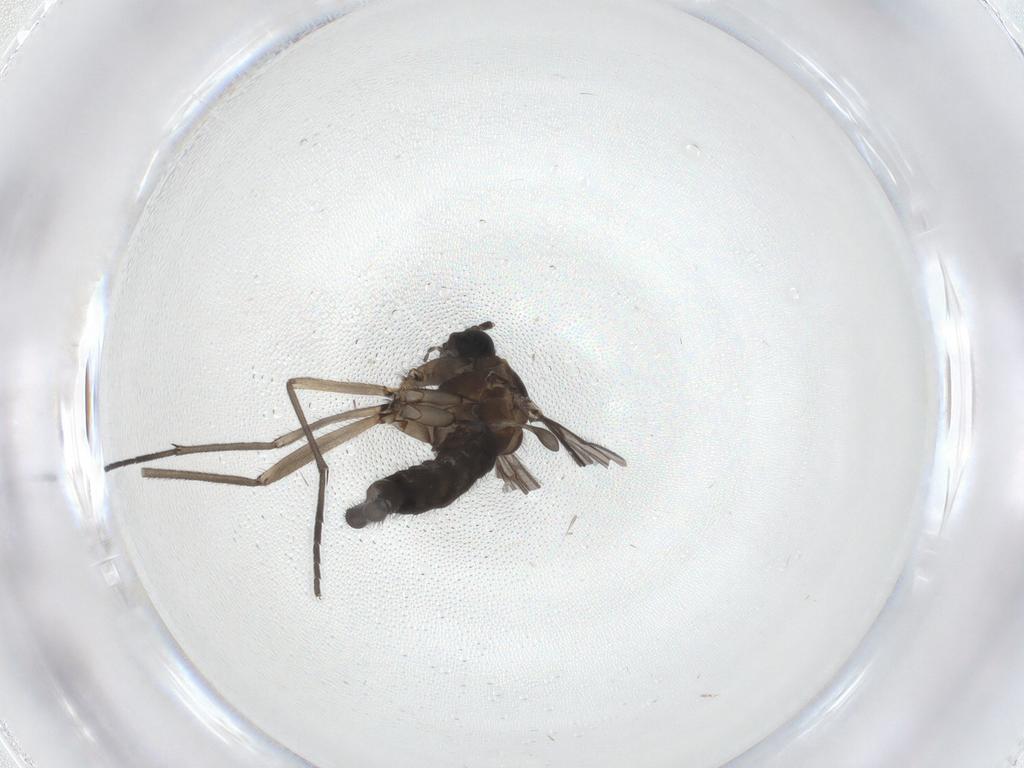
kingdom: Animalia
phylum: Arthropoda
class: Insecta
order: Diptera
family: Sciaridae
